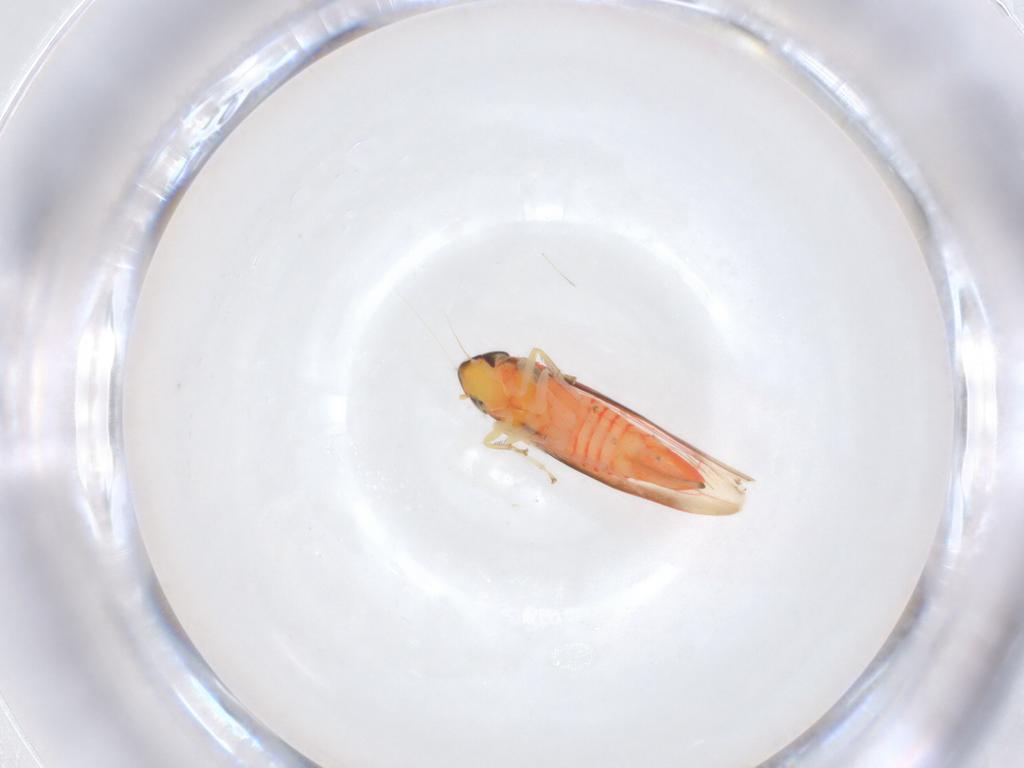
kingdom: Animalia
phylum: Arthropoda
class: Insecta
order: Hemiptera
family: Cicadellidae
